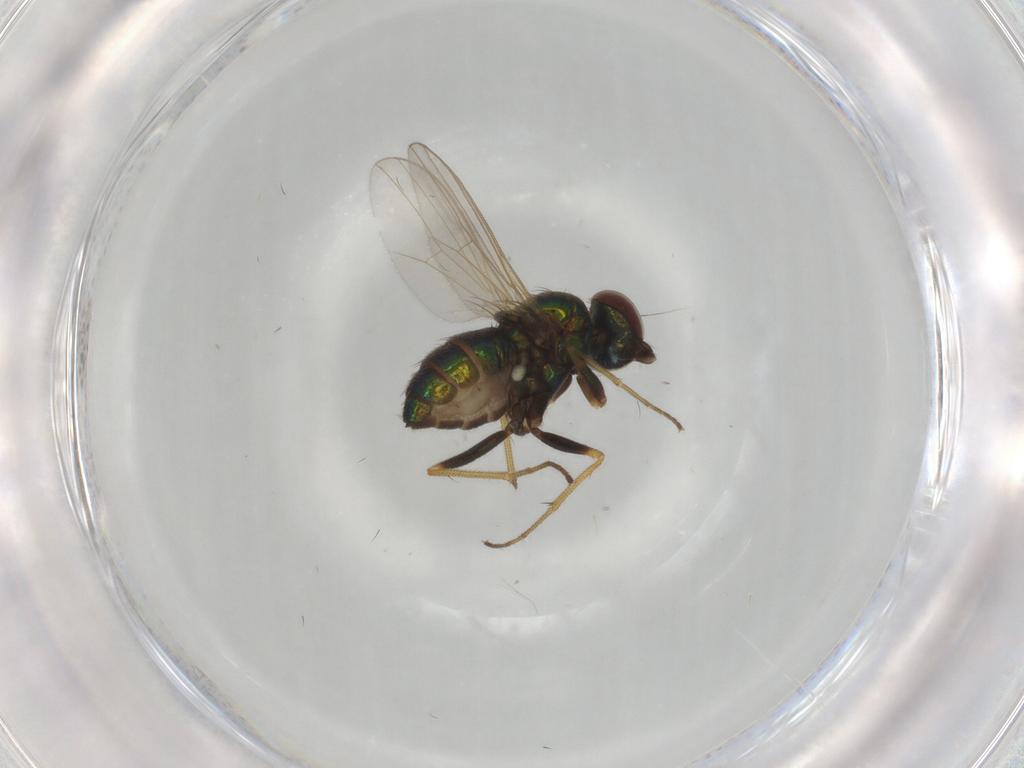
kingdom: Animalia
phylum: Arthropoda
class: Insecta
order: Diptera
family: Dolichopodidae
